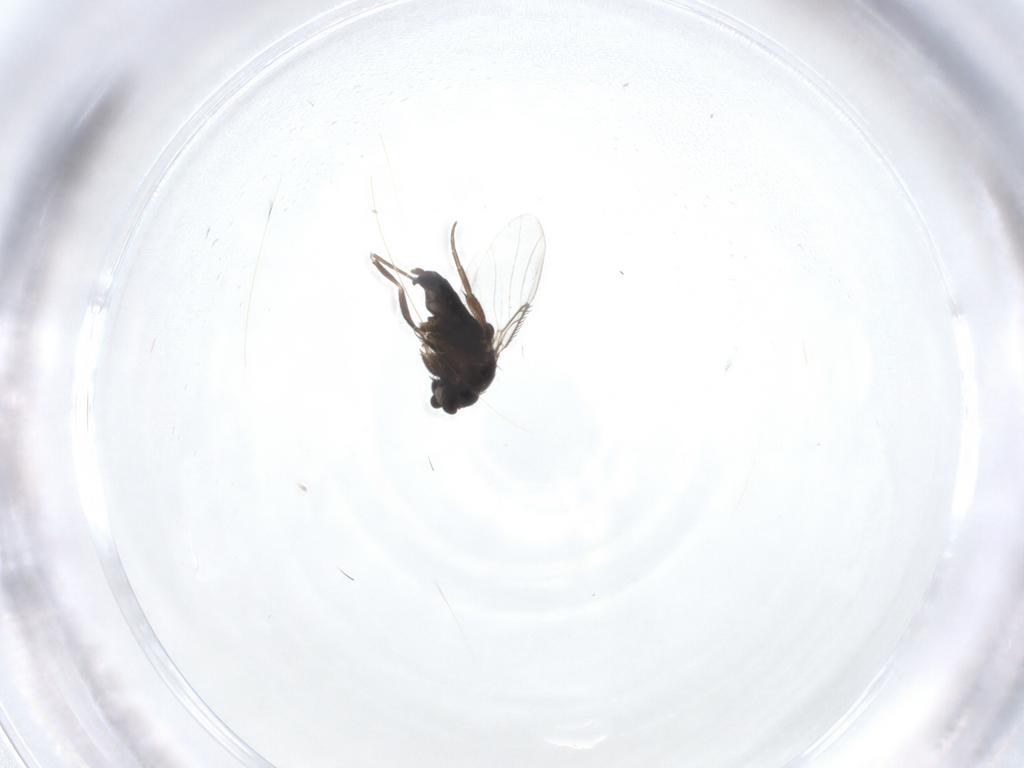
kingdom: Animalia
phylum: Arthropoda
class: Insecta
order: Diptera
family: Phoridae
